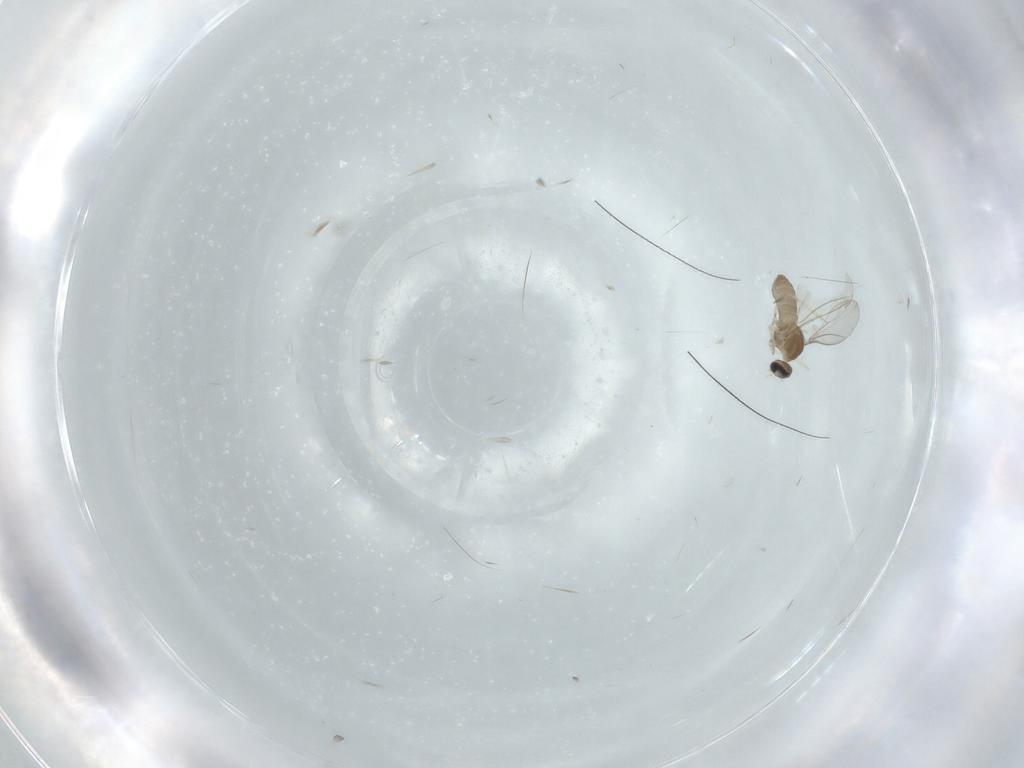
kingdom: Animalia
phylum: Arthropoda
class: Insecta
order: Diptera
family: Cecidomyiidae
